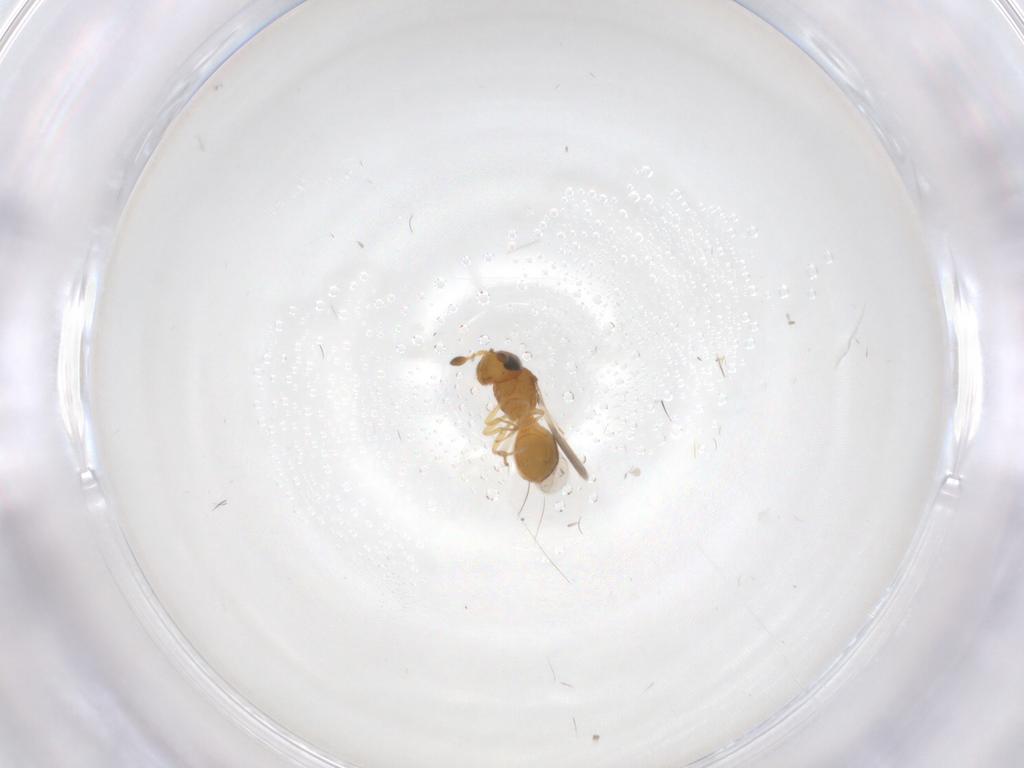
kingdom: Animalia
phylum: Arthropoda
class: Insecta
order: Hymenoptera
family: Scelionidae
